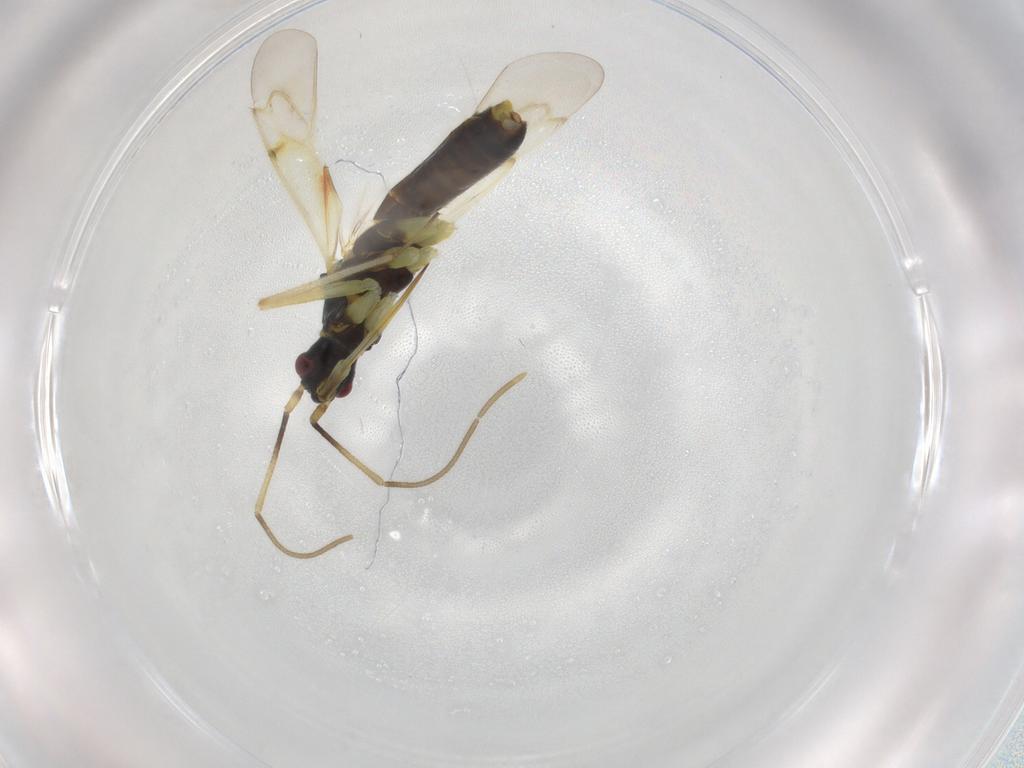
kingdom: Animalia
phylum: Arthropoda
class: Insecta
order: Hemiptera
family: Miridae
